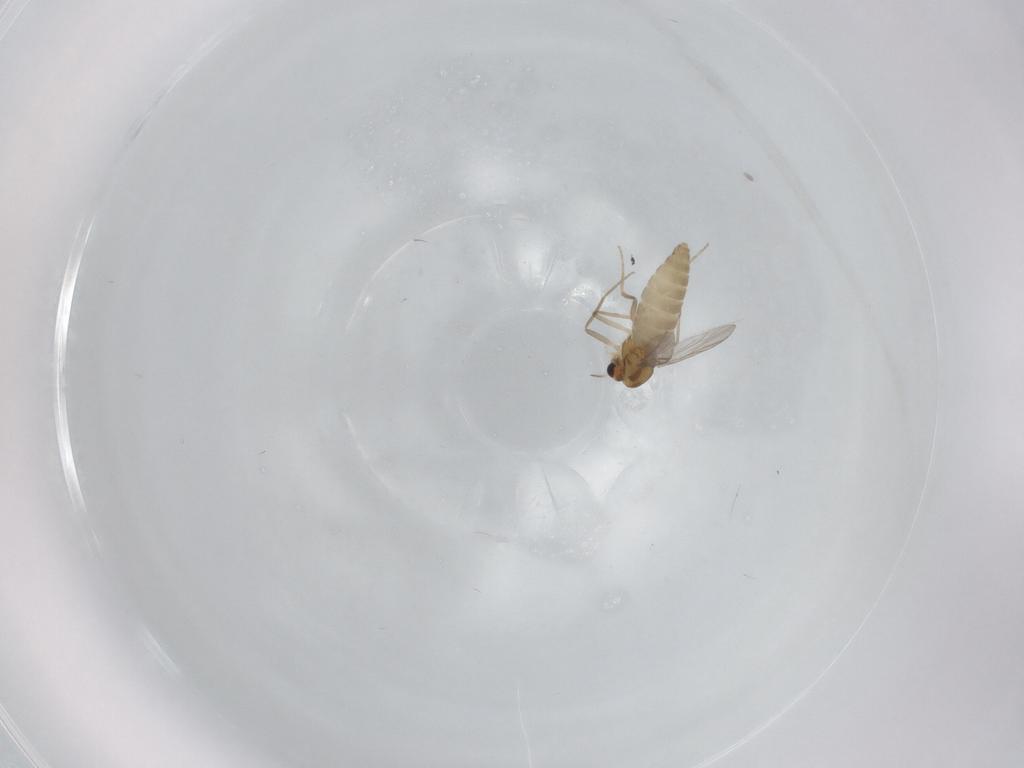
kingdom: Animalia
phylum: Arthropoda
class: Insecta
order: Diptera
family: Chironomidae
